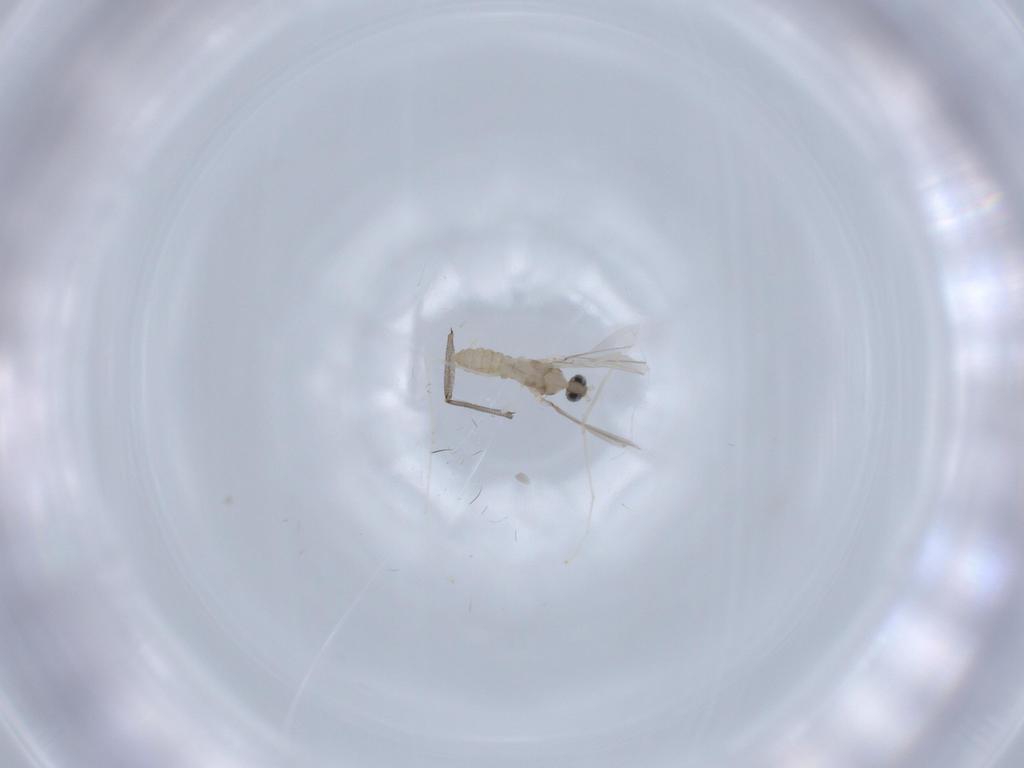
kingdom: Animalia
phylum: Arthropoda
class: Insecta
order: Diptera
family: Cecidomyiidae
